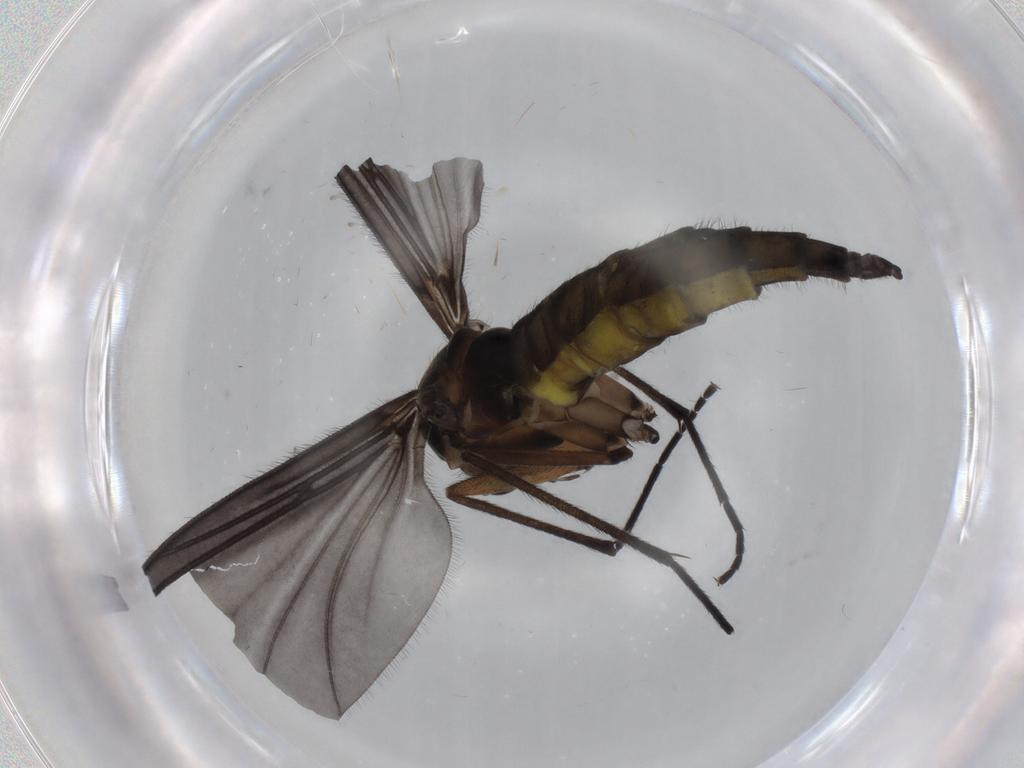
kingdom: Animalia
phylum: Arthropoda
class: Insecta
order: Diptera
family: Sciaridae
